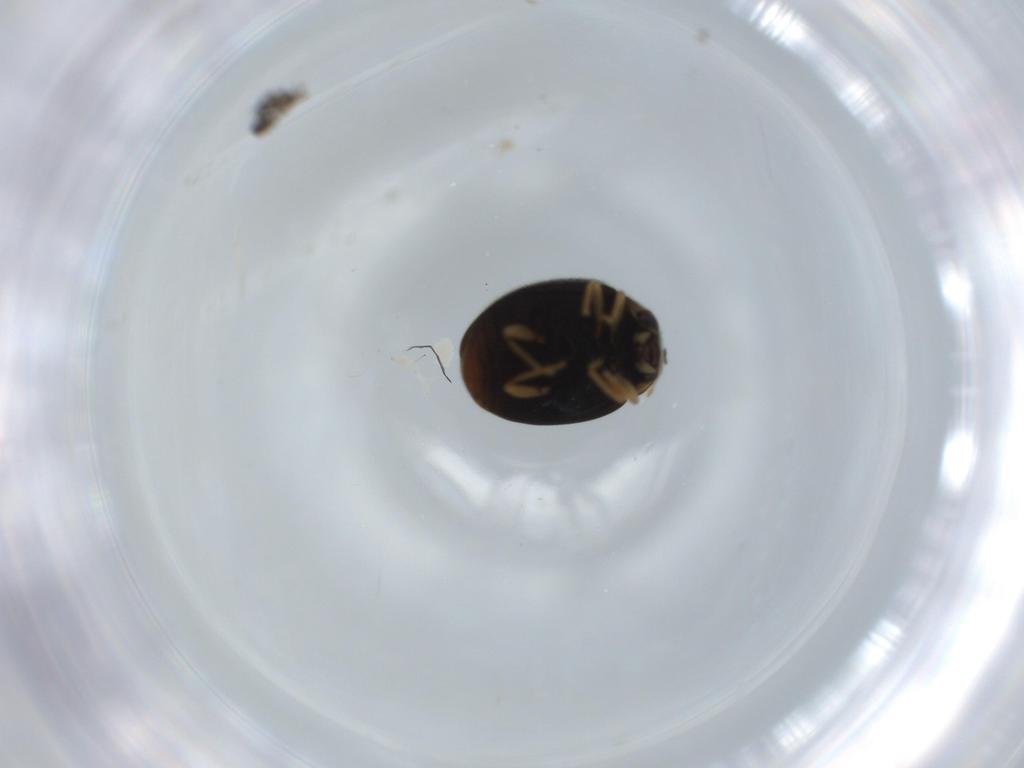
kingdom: Animalia
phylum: Arthropoda
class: Insecta
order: Coleoptera
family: Coccinellidae
